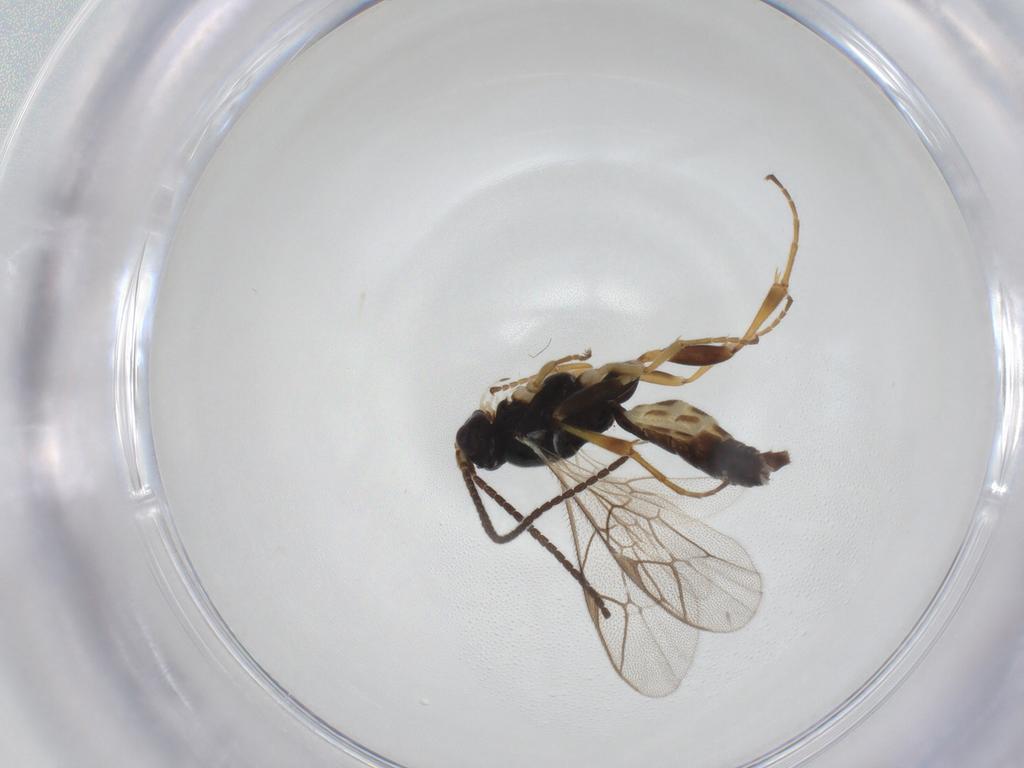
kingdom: Animalia
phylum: Arthropoda
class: Insecta
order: Hymenoptera
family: Ichneumonidae
